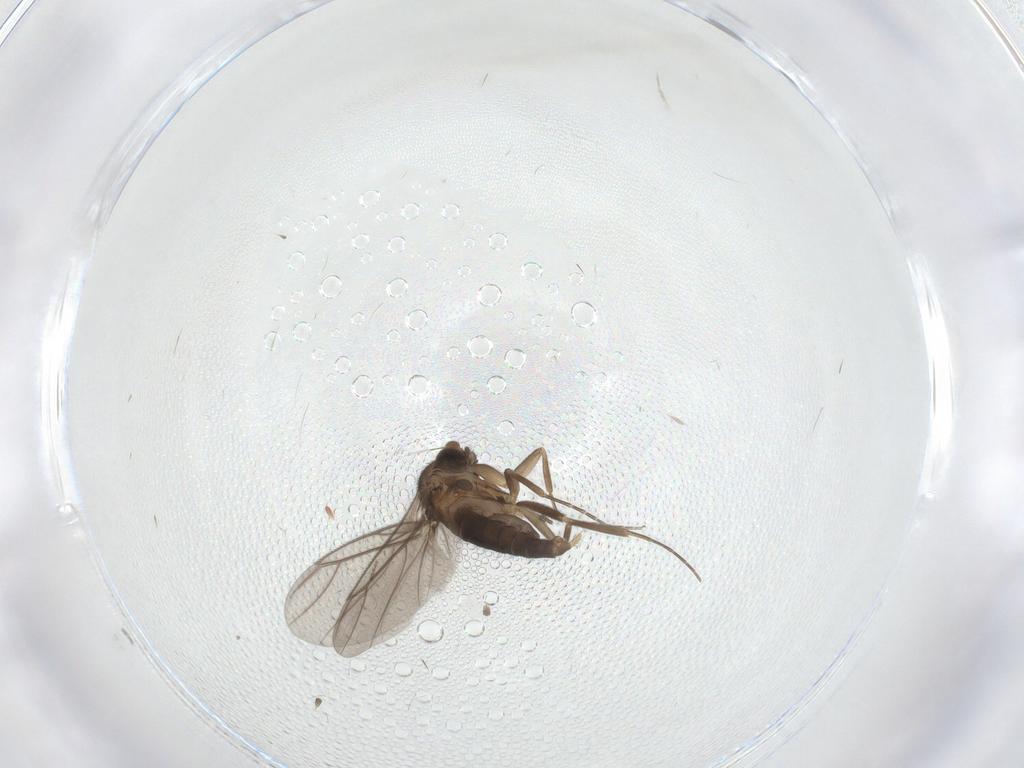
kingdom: Animalia
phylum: Arthropoda
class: Insecta
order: Diptera
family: Limoniidae
